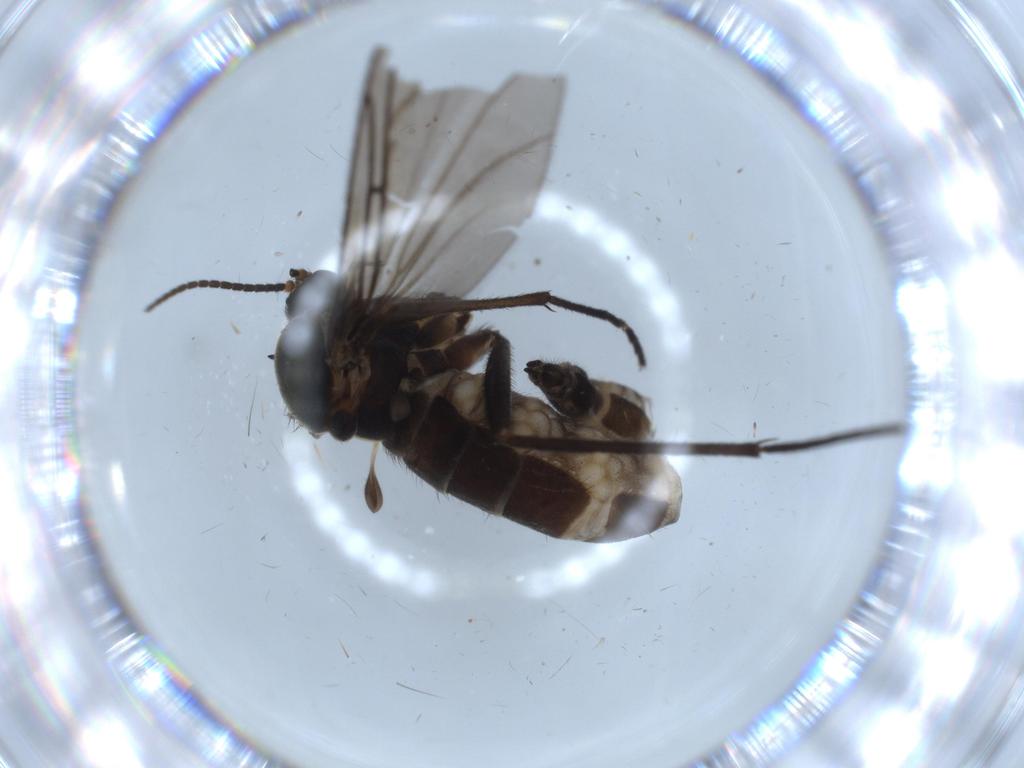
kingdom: Animalia
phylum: Arthropoda
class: Insecta
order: Diptera
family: Sciaridae
